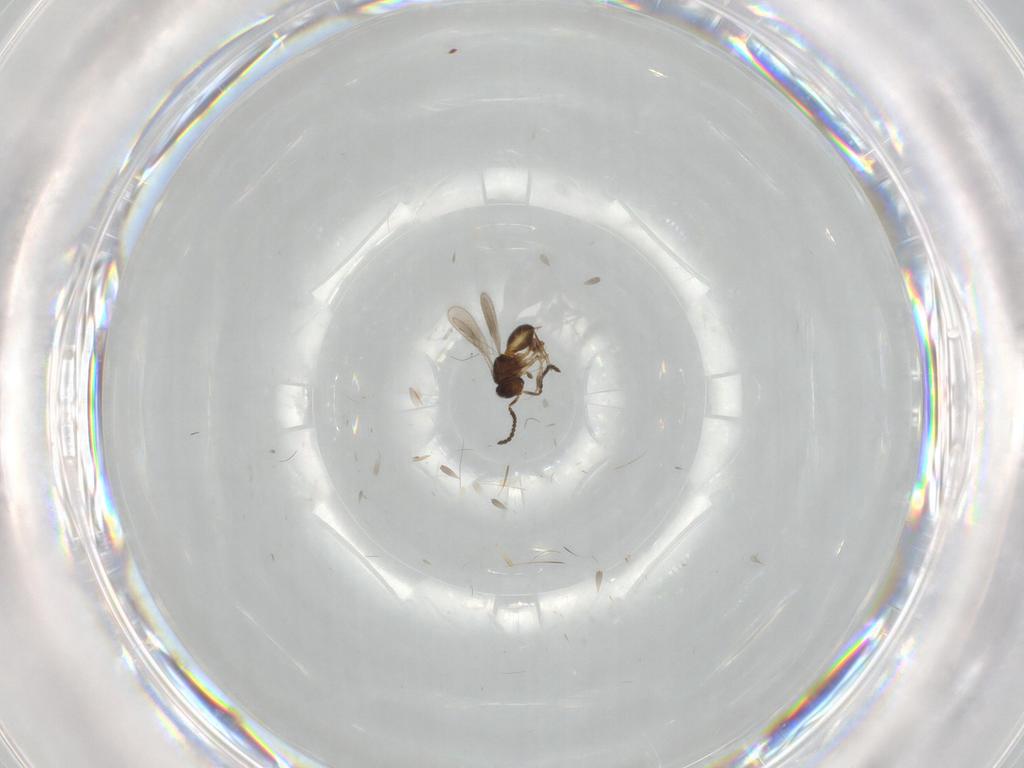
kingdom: Animalia
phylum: Arthropoda
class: Insecta
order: Hymenoptera
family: Scelionidae
